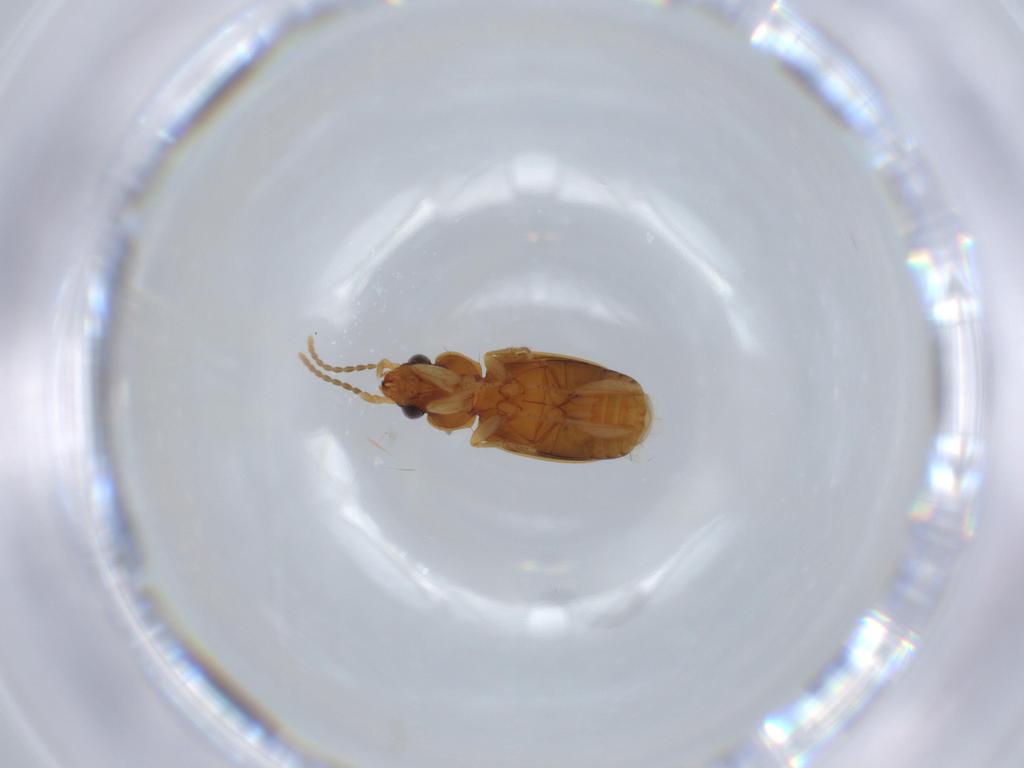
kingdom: Animalia
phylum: Arthropoda
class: Insecta
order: Coleoptera
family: Carabidae
